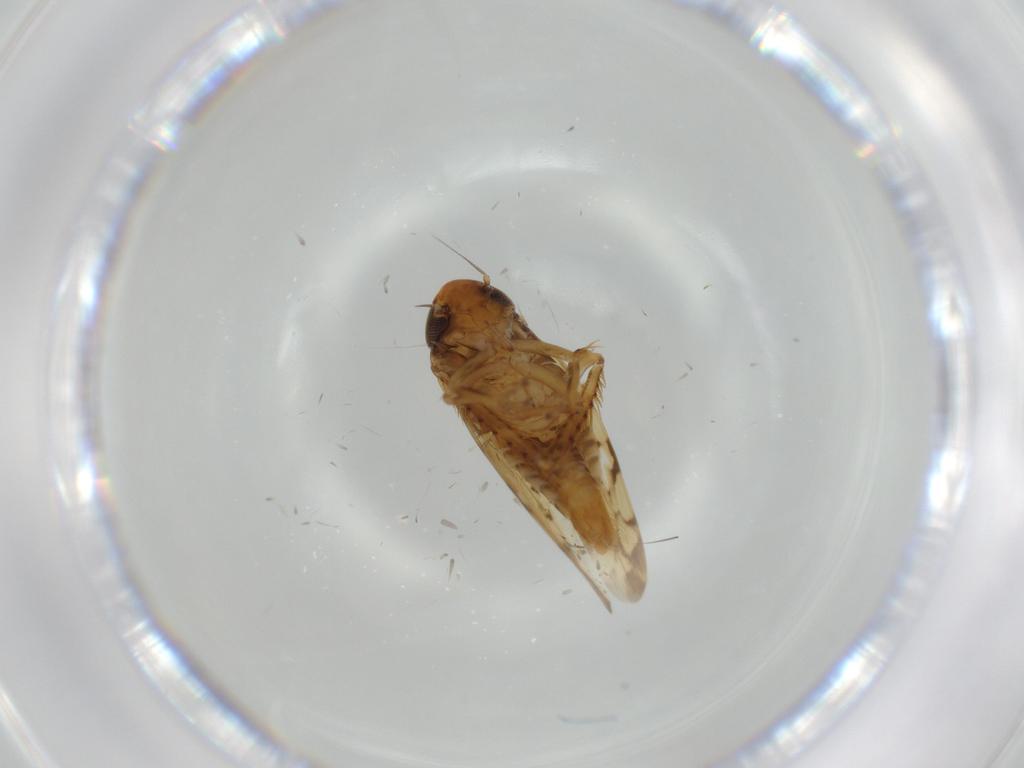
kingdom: Animalia
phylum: Arthropoda
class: Insecta
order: Hemiptera
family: Cicadellidae
